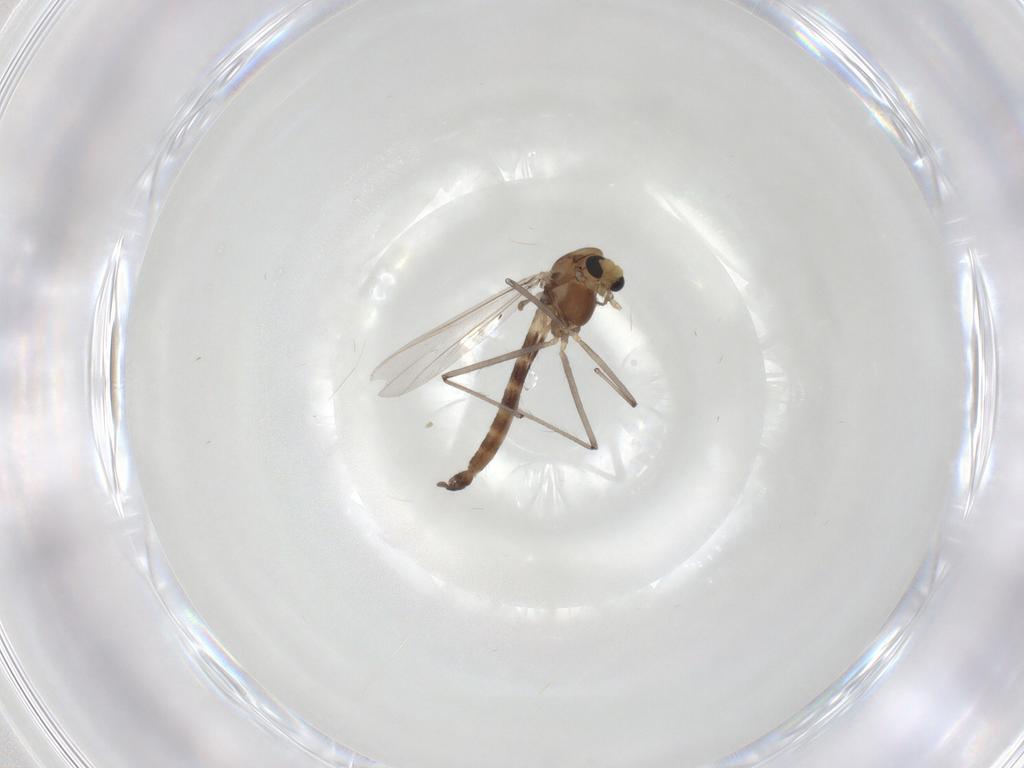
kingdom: Animalia
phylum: Arthropoda
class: Insecta
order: Diptera
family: Chironomidae
